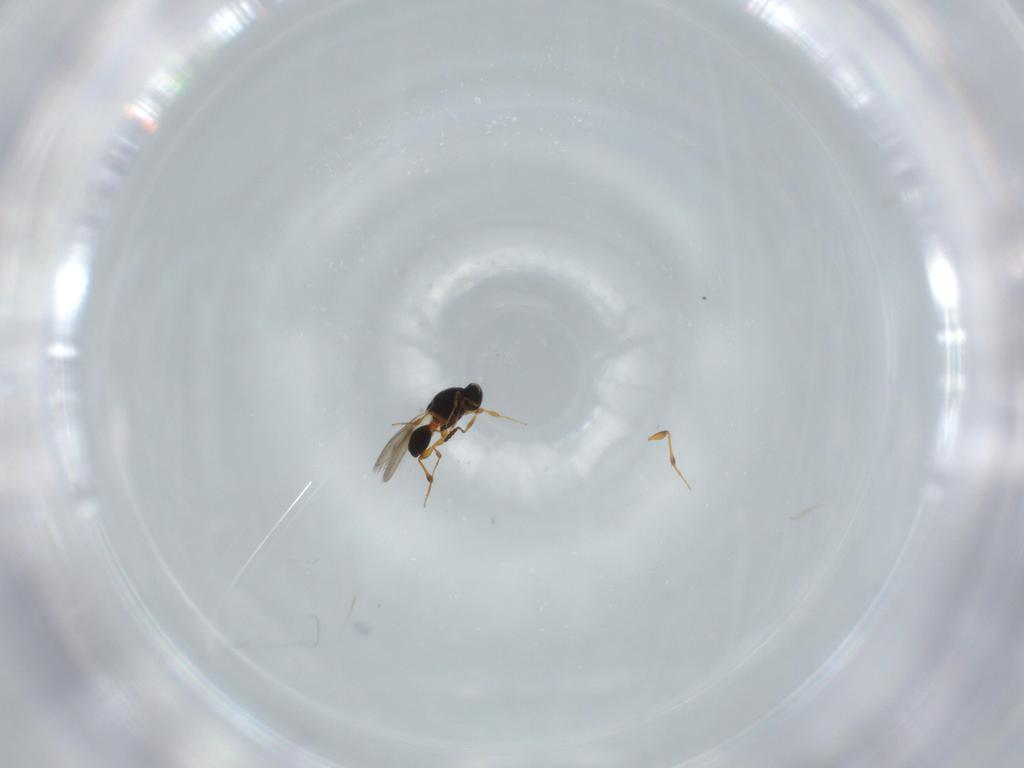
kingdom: Animalia
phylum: Arthropoda
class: Insecta
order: Hymenoptera
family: Platygastridae
